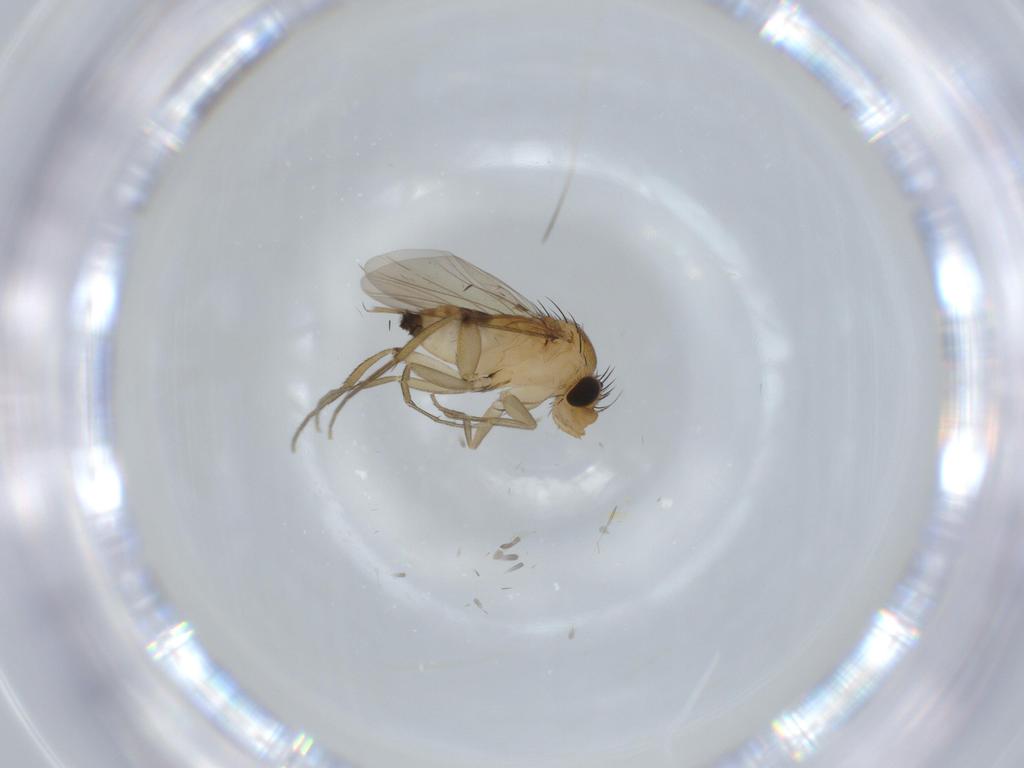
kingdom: Animalia
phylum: Arthropoda
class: Insecta
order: Diptera
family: Phoridae
